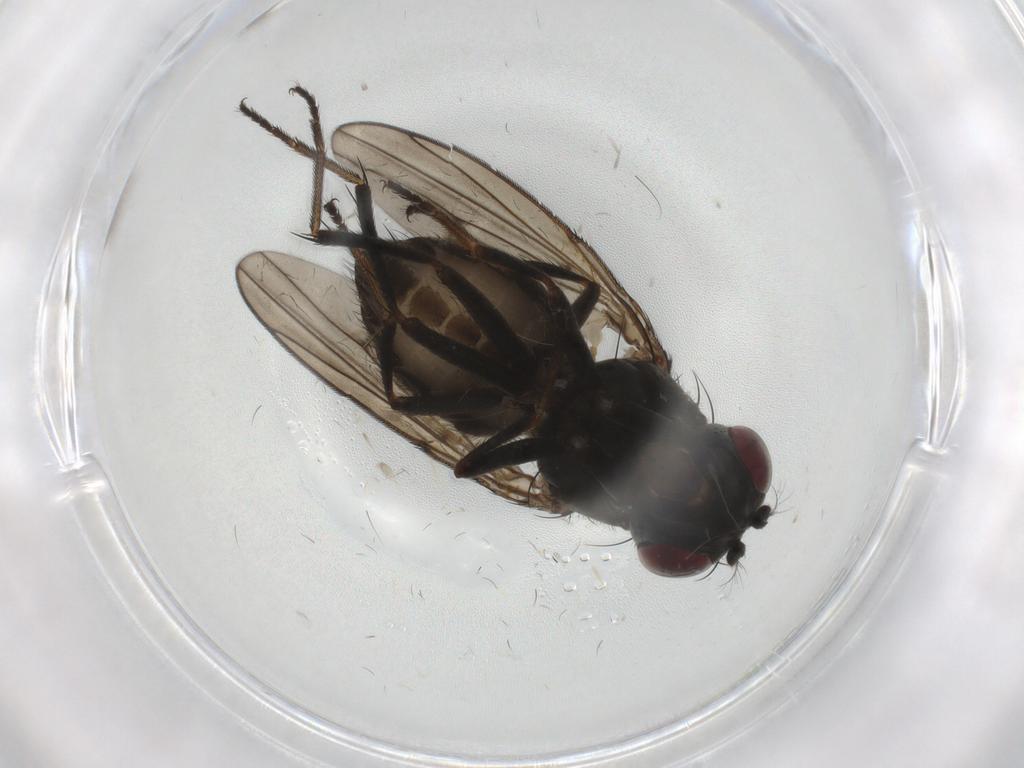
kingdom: Animalia
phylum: Arthropoda
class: Insecta
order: Diptera
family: Ephydridae
